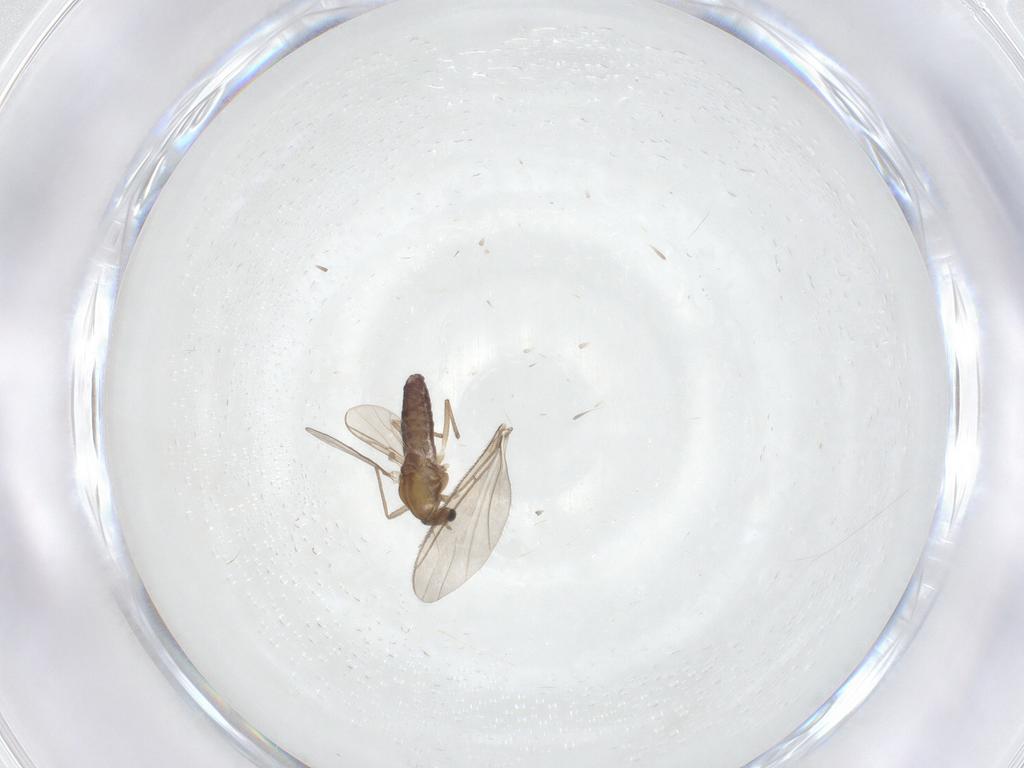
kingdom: Animalia
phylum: Arthropoda
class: Insecta
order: Diptera
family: Chironomidae
